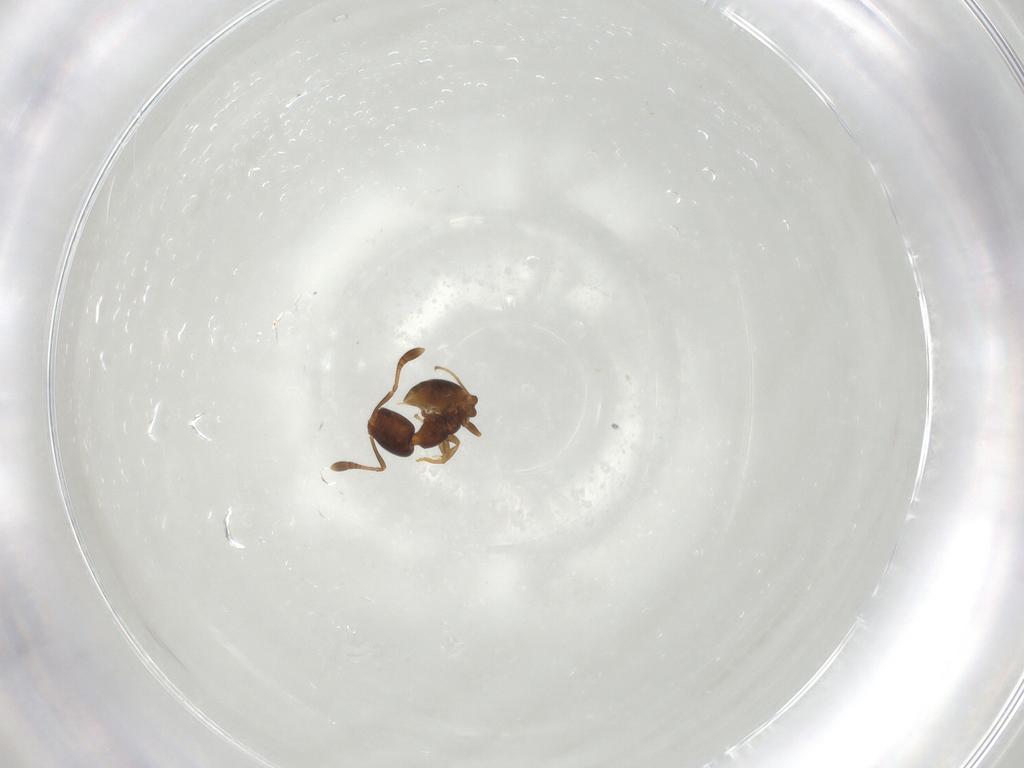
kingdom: Animalia
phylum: Arthropoda
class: Insecta
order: Hymenoptera
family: Formicidae
